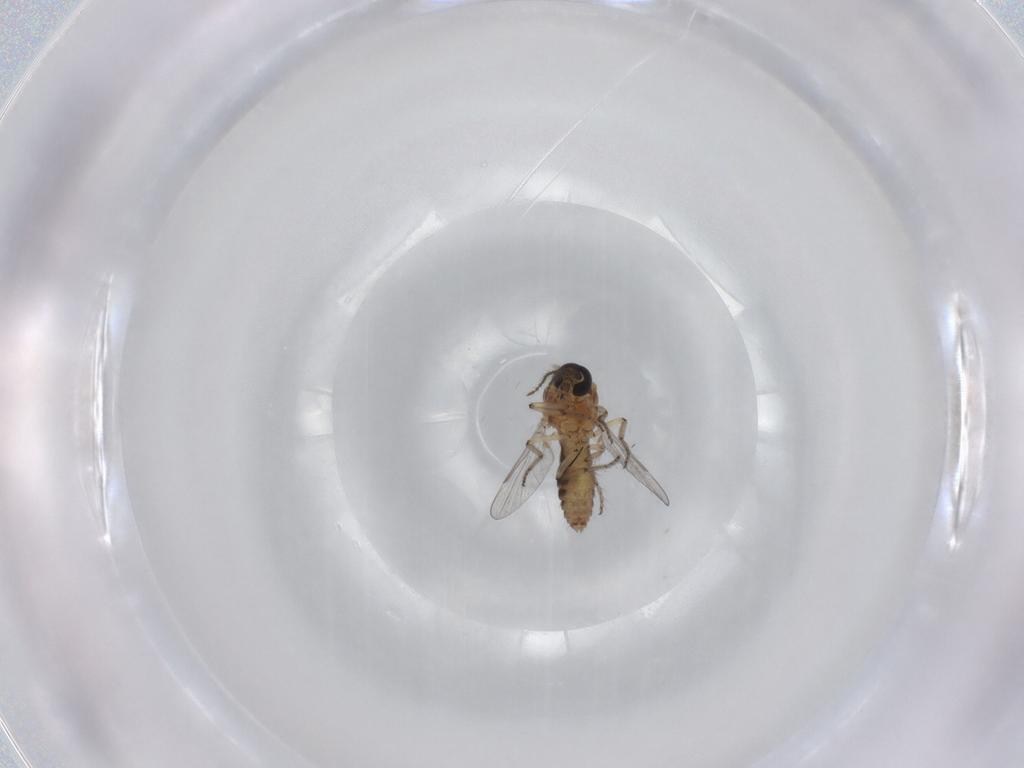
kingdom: Animalia
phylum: Arthropoda
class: Insecta
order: Diptera
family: Ceratopogonidae
